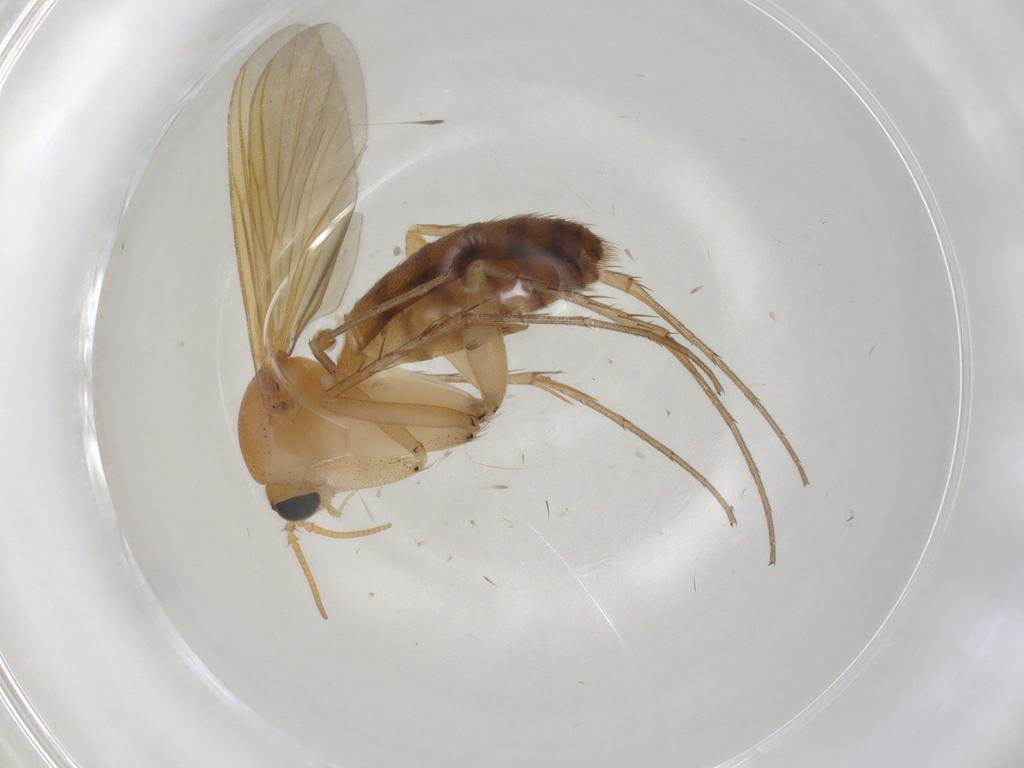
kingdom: Animalia
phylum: Arthropoda
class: Insecta
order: Diptera
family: Mycetophilidae
